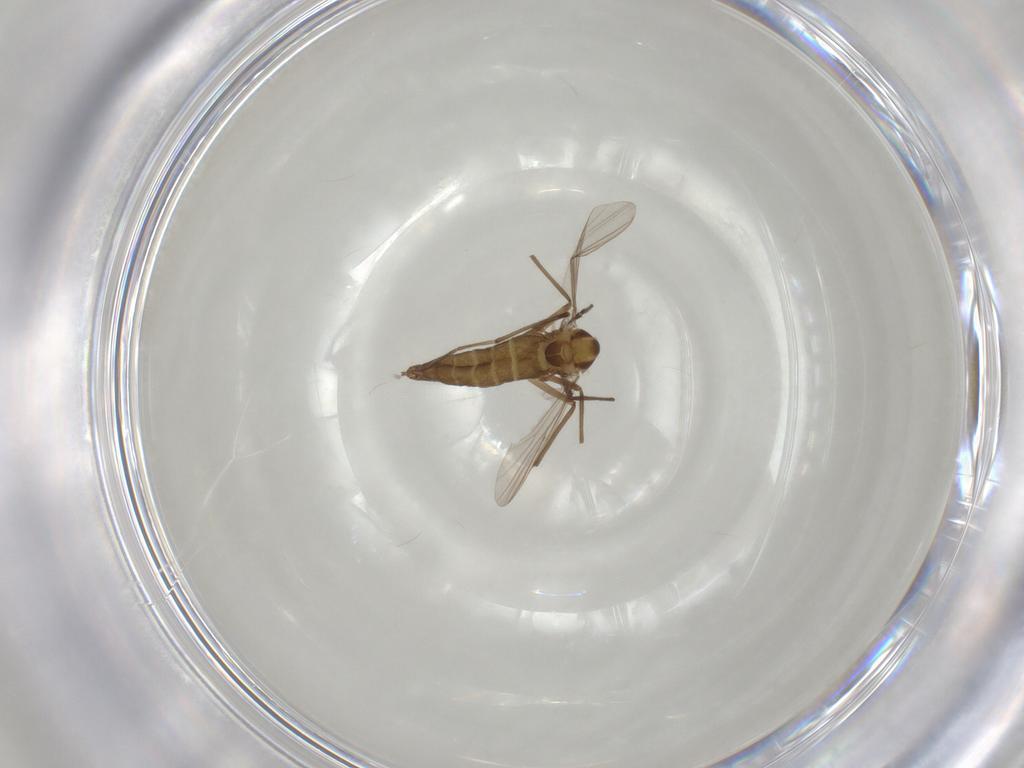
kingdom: Animalia
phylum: Arthropoda
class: Insecta
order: Diptera
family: Chironomidae
